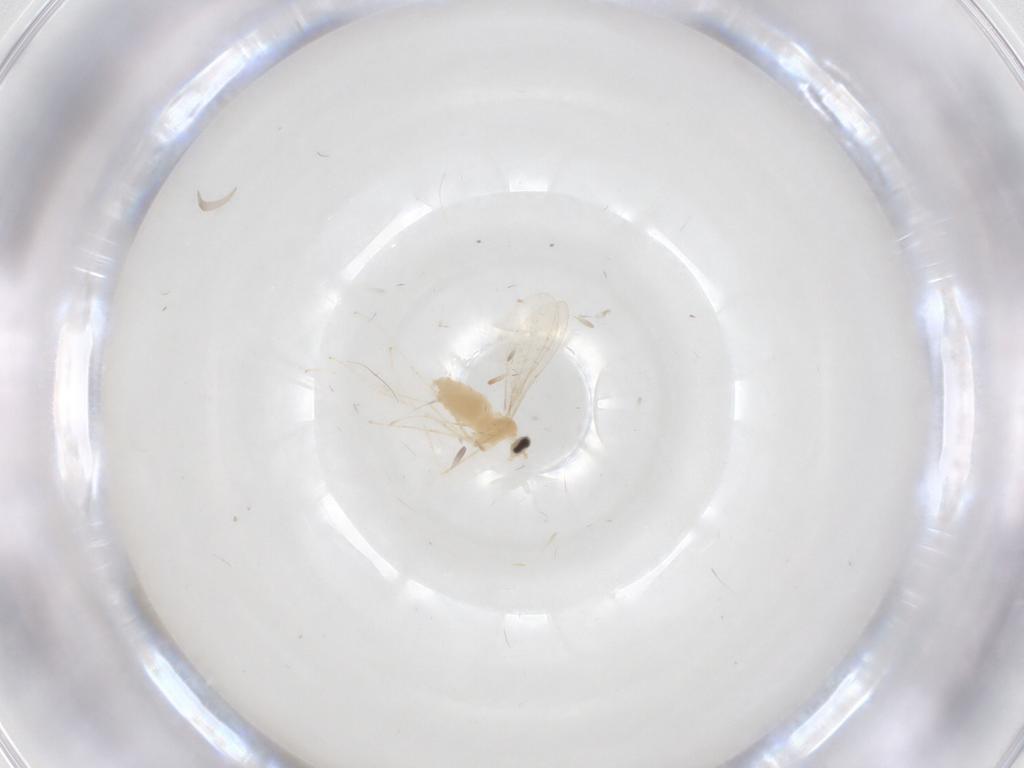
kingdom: Animalia
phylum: Arthropoda
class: Insecta
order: Diptera
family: Cecidomyiidae
